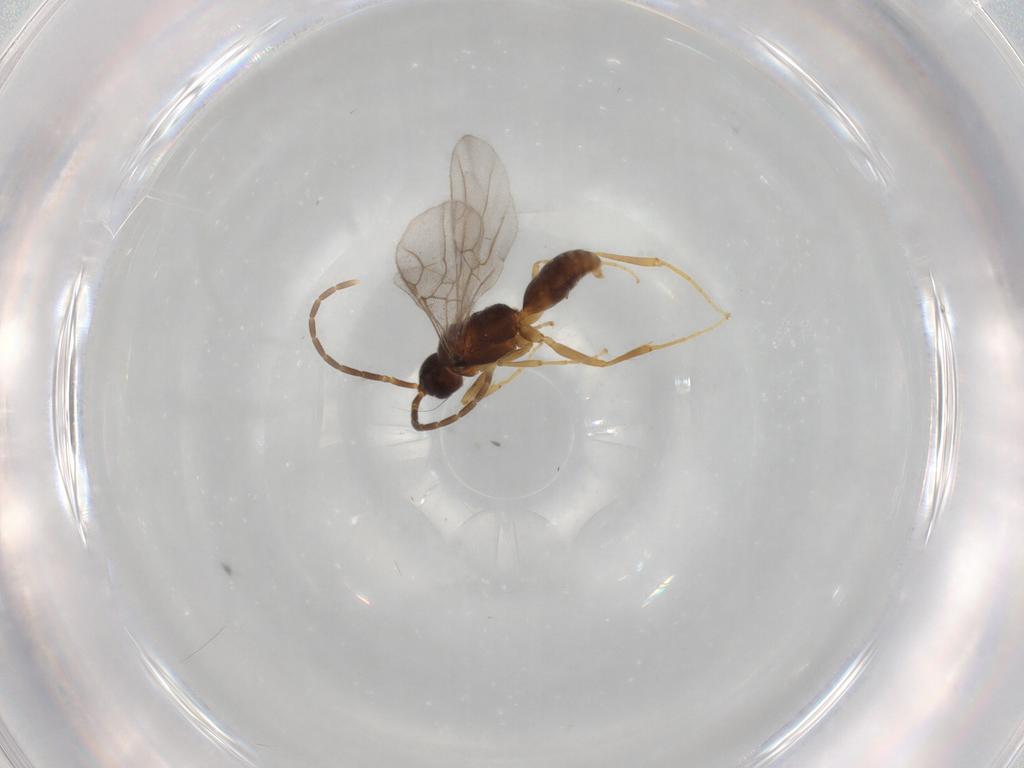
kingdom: Animalia
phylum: Arthropoda
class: Insecta
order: Hymenoptera
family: Embolemidae
